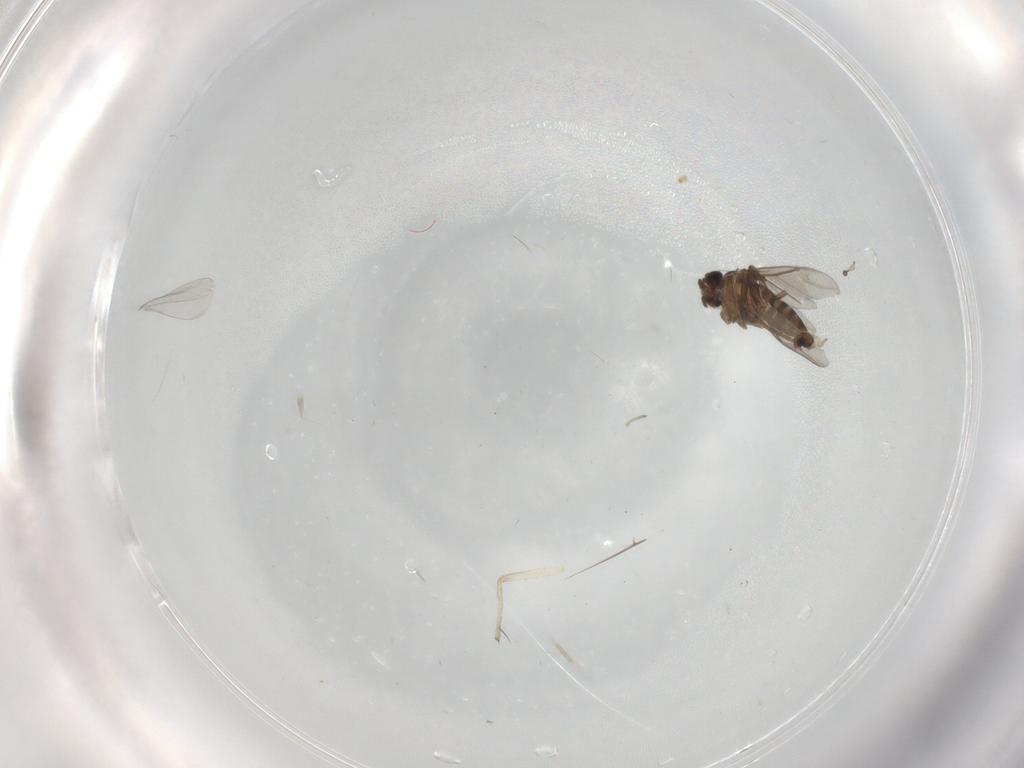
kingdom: Animalia
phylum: Arthropoda
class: Insecta
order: Diptera
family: Chironomidae
